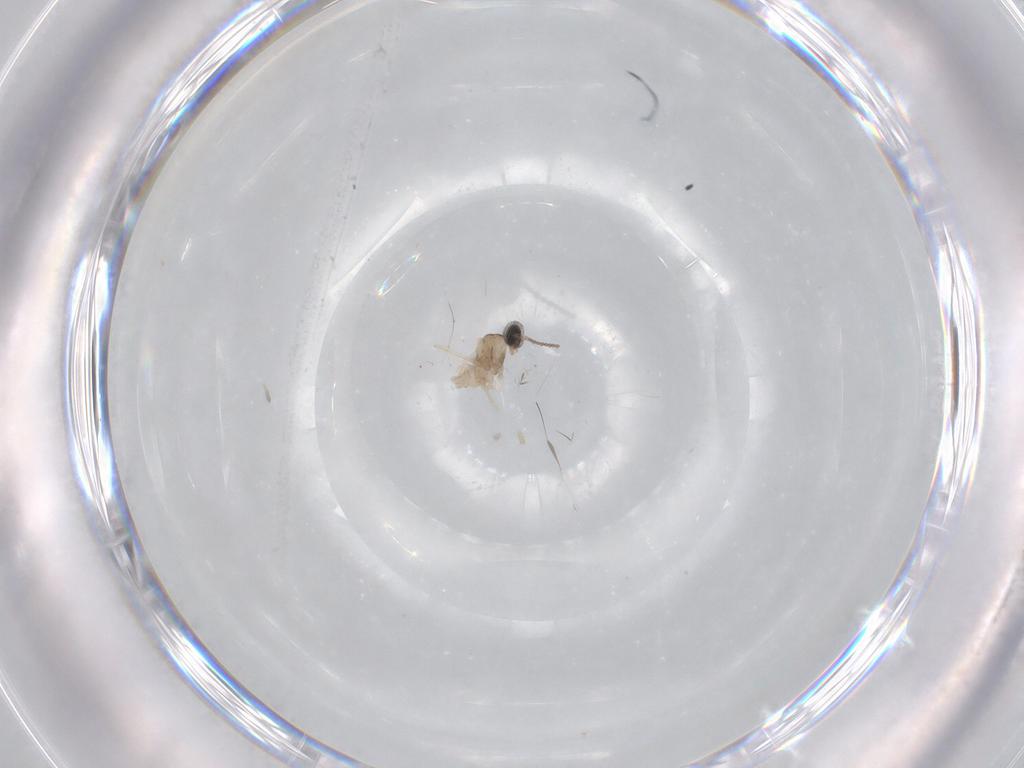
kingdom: Animalia
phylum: Arthropoda
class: Insecta
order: Diptera
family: Cecidomyiidae
